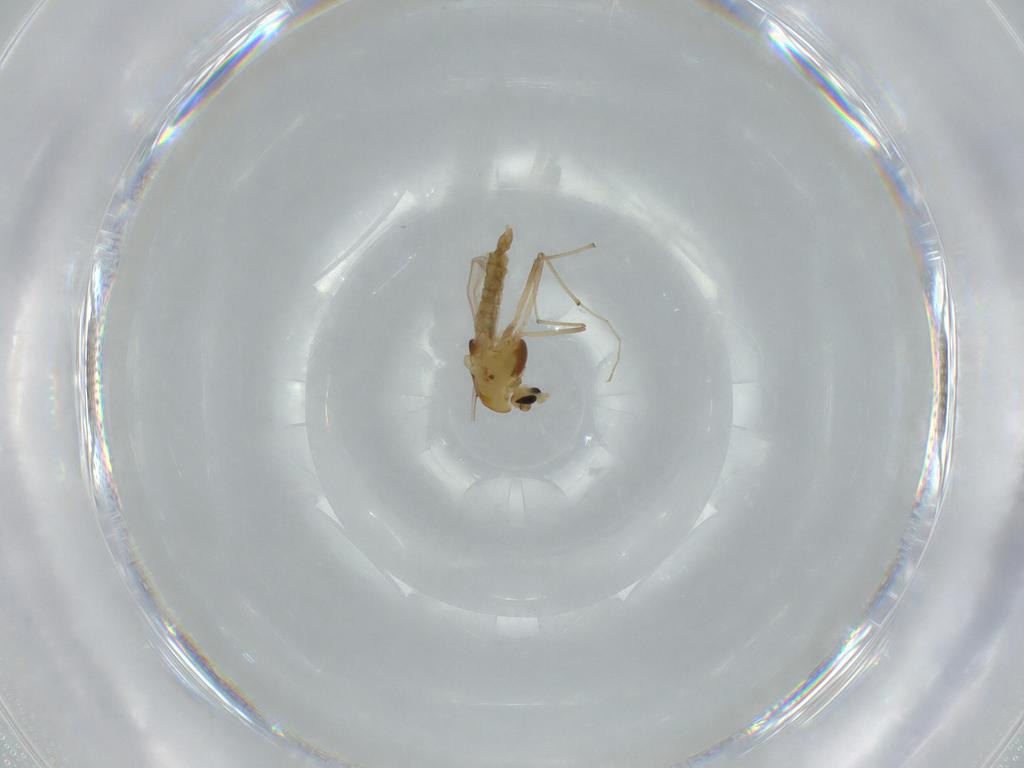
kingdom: Animalia
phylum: Arthropoda
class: Insecta
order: Diptera
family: Chironomidae
